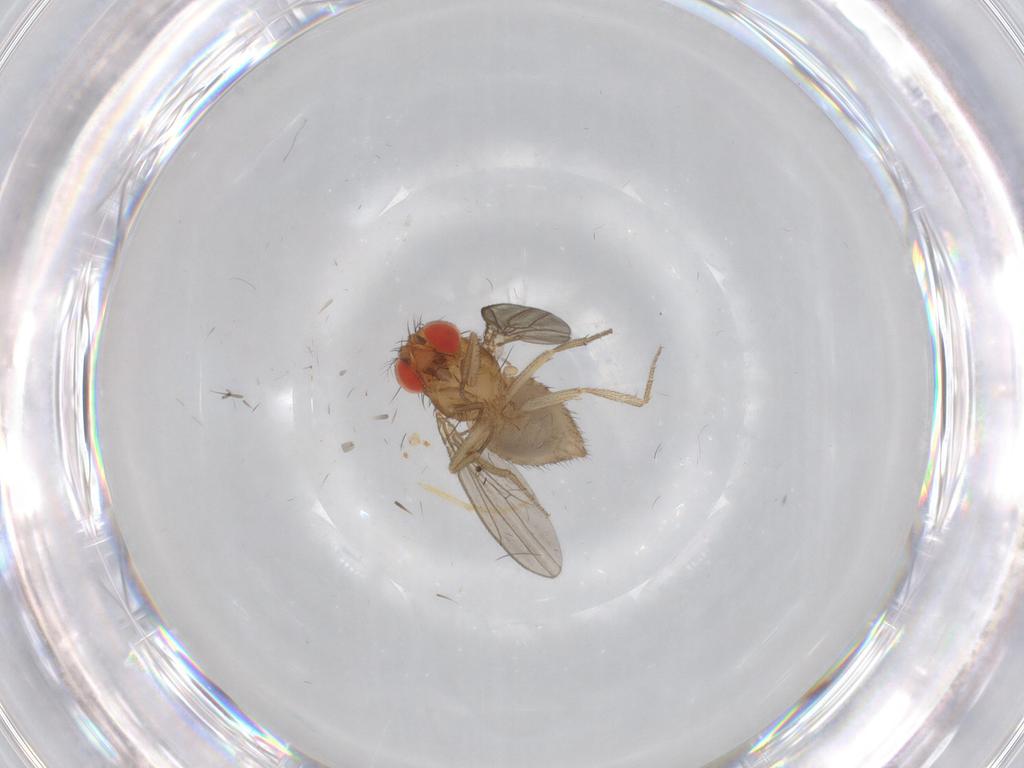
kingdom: Animalia
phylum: Arthropoda
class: Insecta
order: Diptera
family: Drosophilidae
